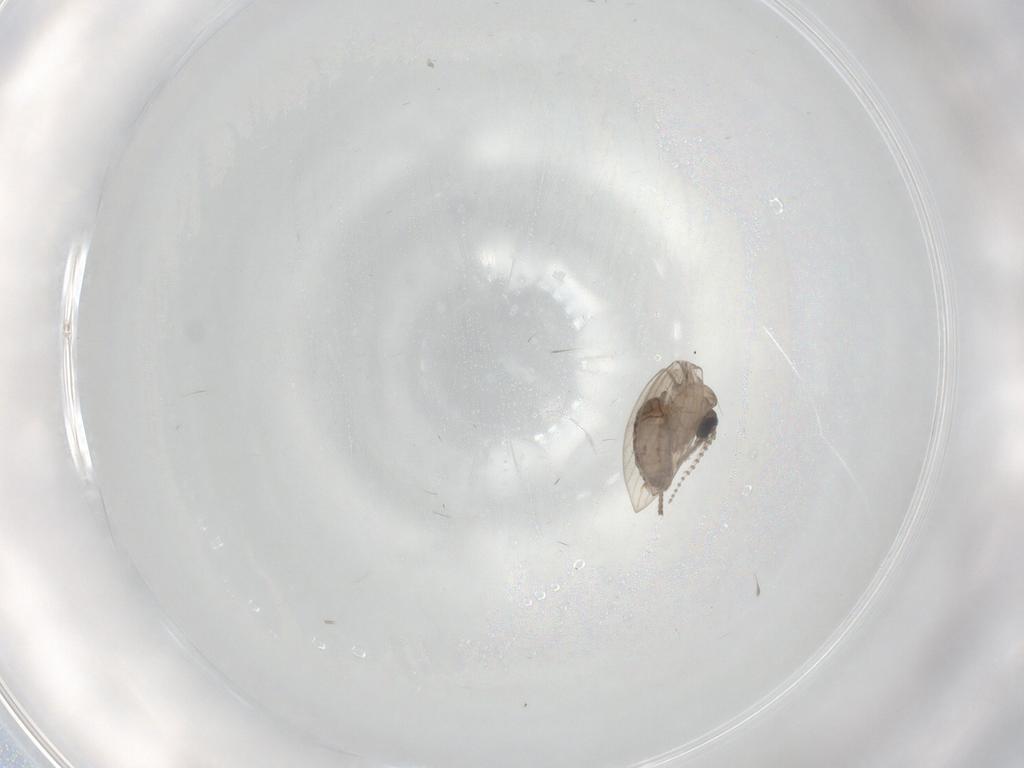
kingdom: Animalia
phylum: Arthropoda
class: Insecta
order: Diptera
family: Psychodidae
